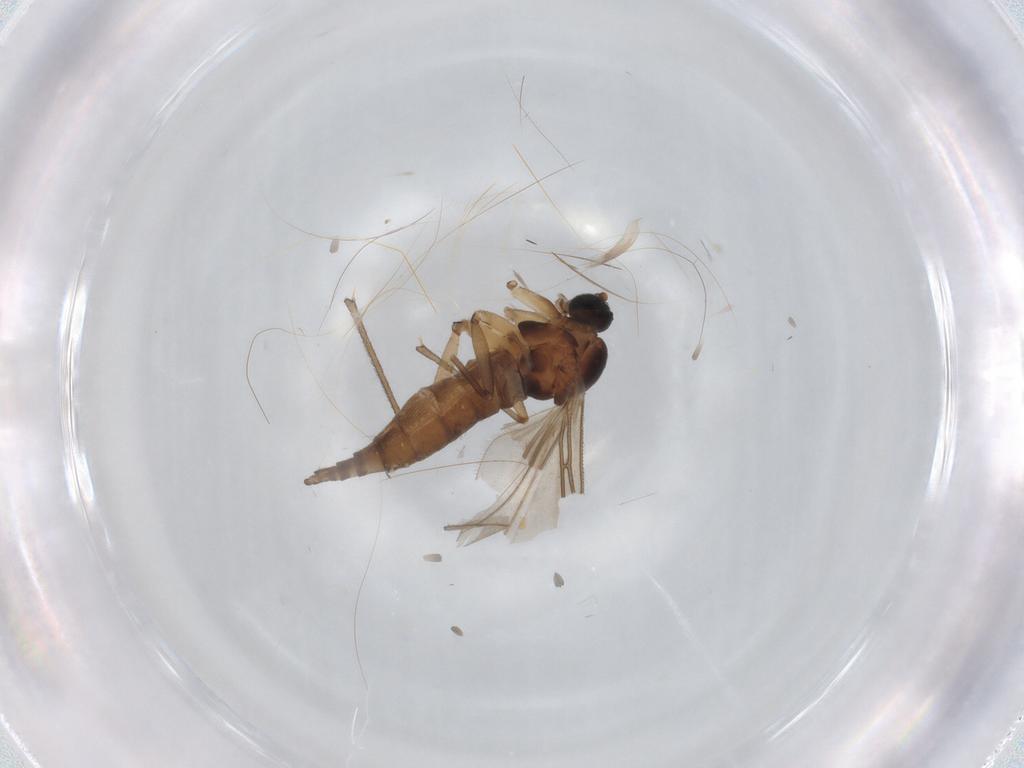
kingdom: Animalia
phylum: Arthropoda
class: Insecta
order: Diptera
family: Sciaridae
